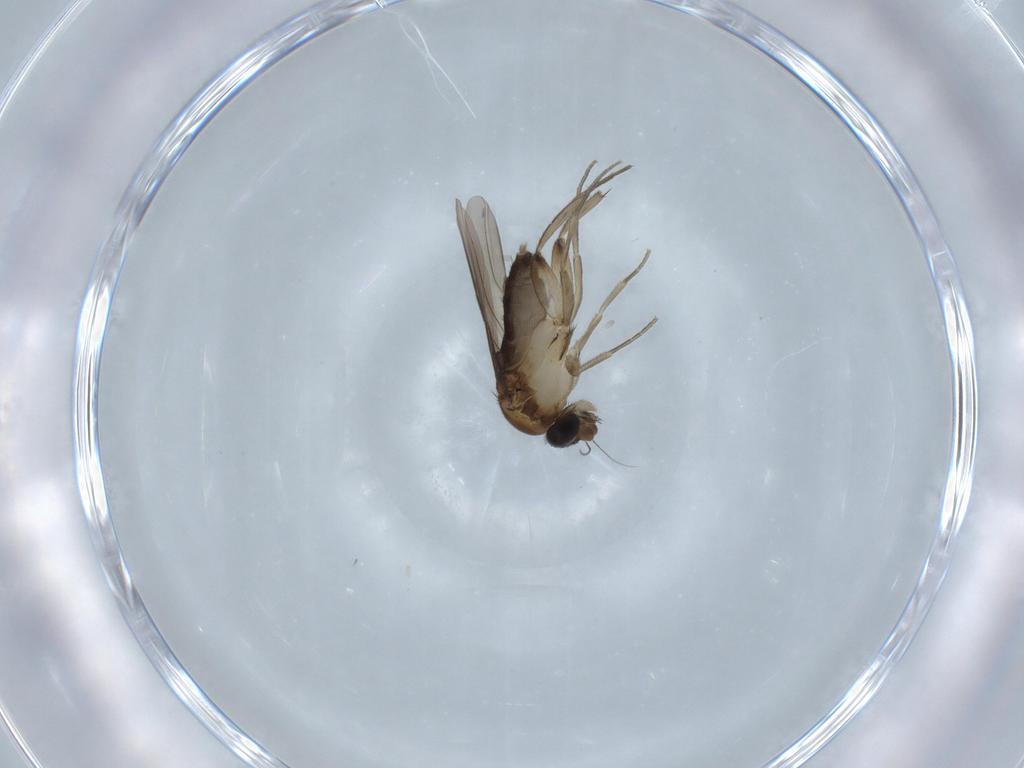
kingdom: Animalia
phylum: Arthropoda
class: Insecta
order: Diptera
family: Phoridae
